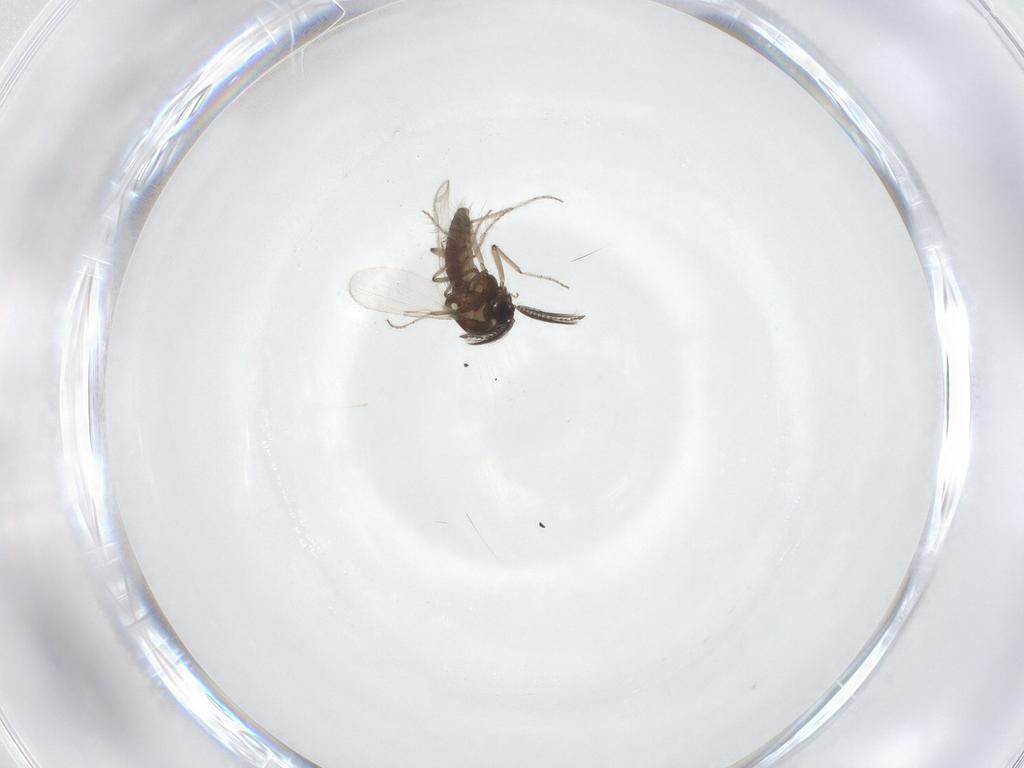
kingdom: Animalia
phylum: Arthropoda
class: Insecta
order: Diptera
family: Ceratopogonidae
